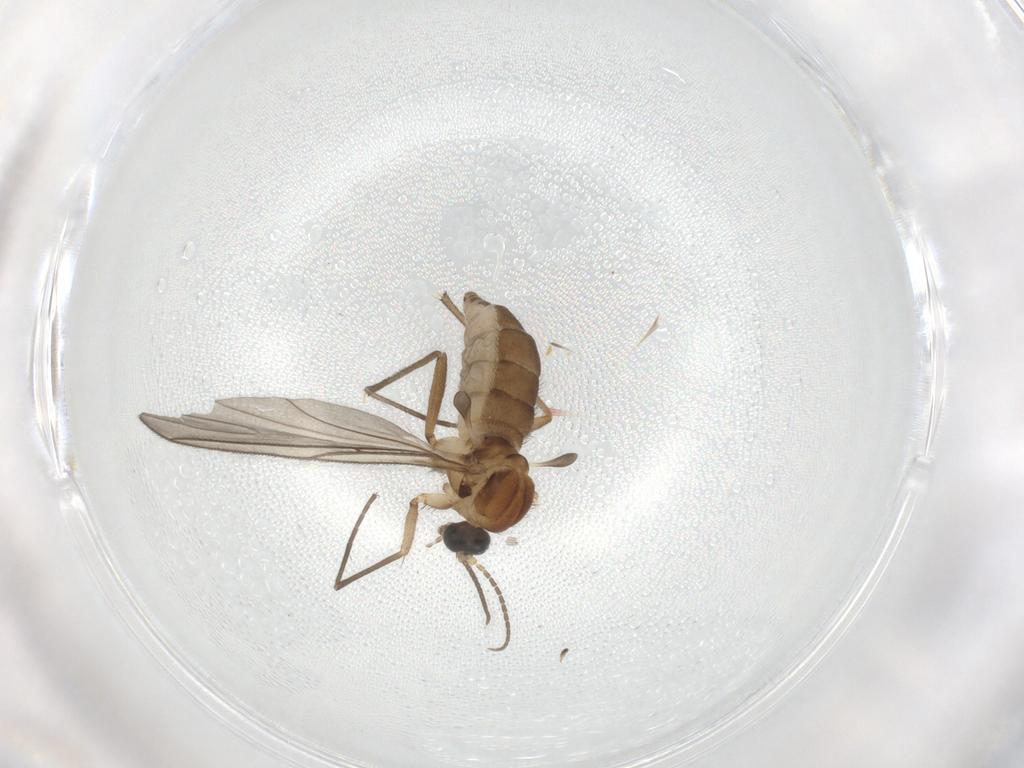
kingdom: Animalia
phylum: Arthropoda
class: Insecta
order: Diptera
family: Sciaridae
